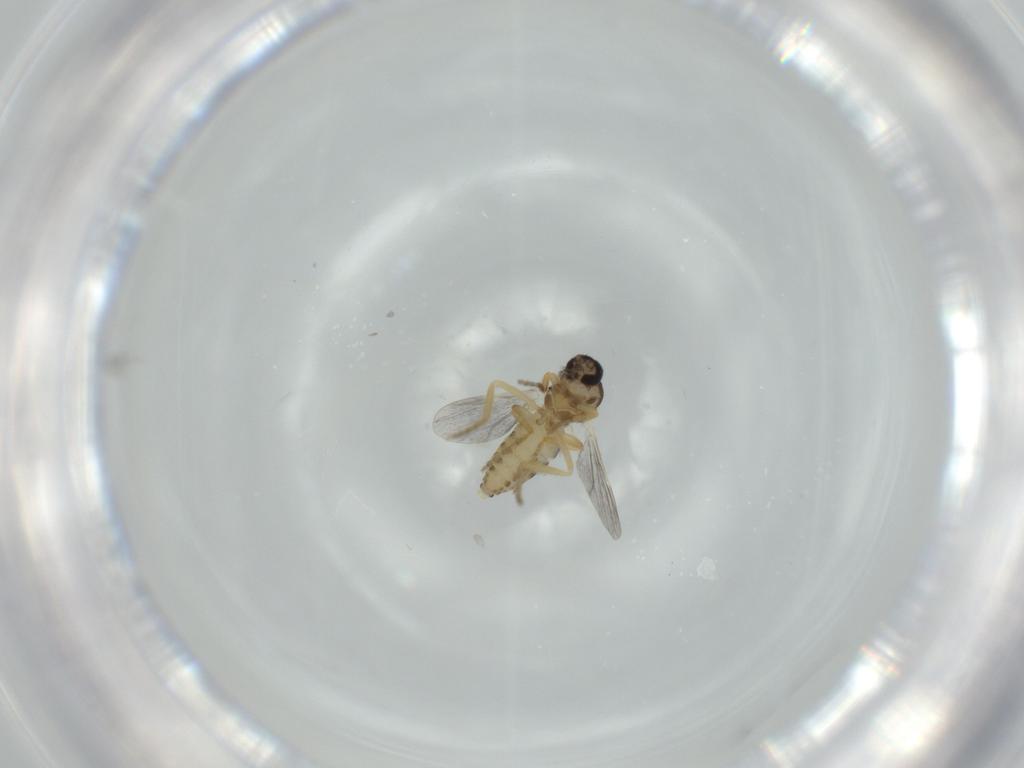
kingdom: Animalia
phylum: Arthropoda
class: Insecta
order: Diptera
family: Ceratopogonidae
